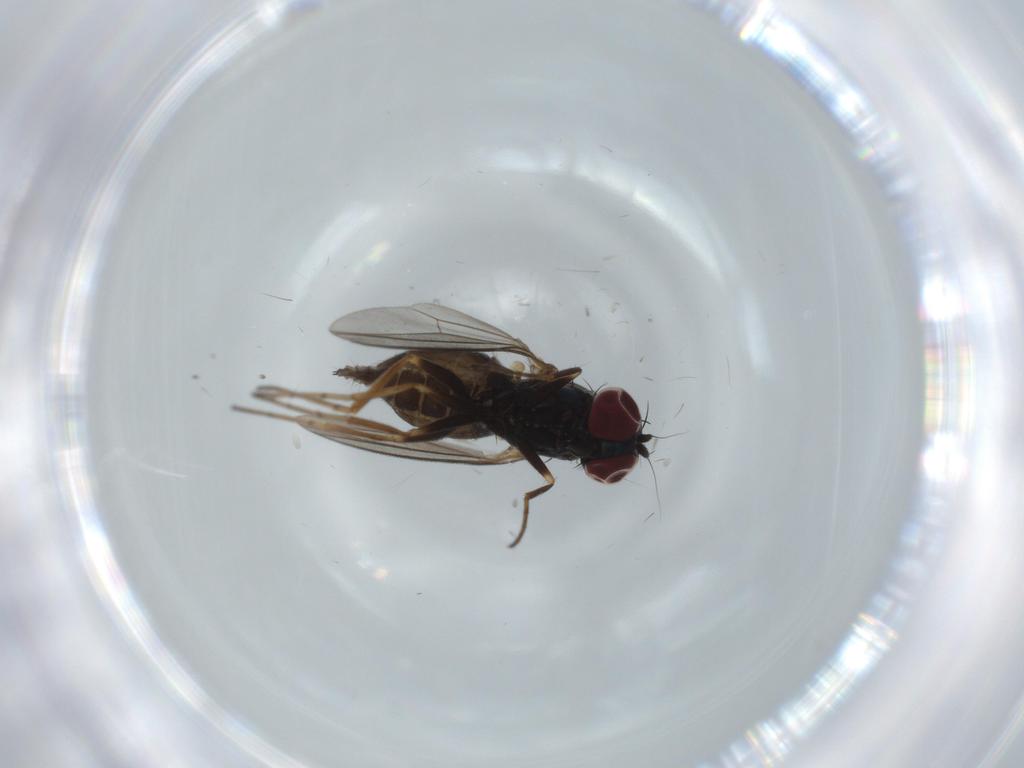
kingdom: Animalia
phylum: Arthropoda
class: Insecta
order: Diptera
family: Dolichopodidae
